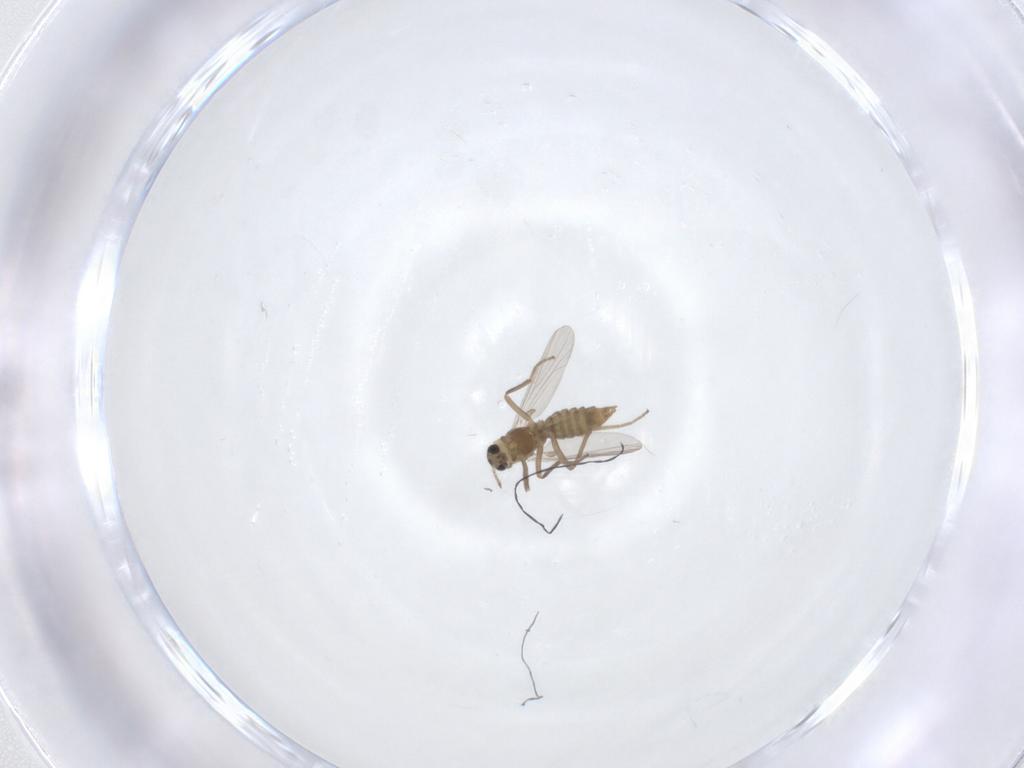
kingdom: Animalia
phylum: Arthropoda
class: Insecta
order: Diptera
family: Chironomidae
